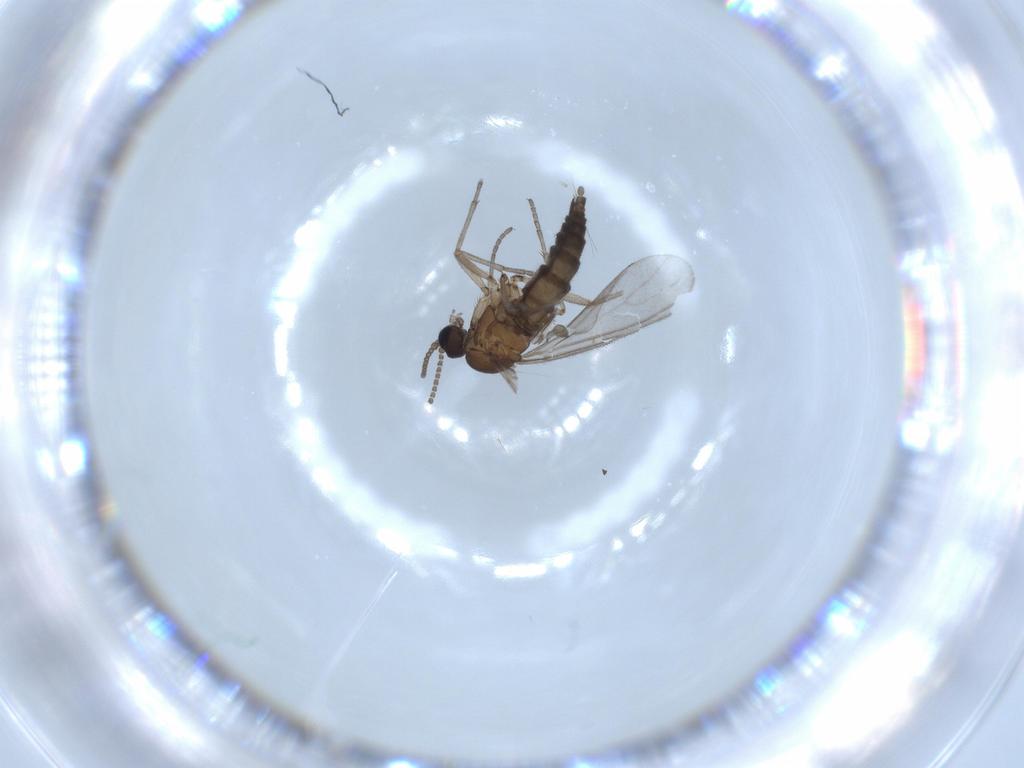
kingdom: Animalia
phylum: Arthropoda
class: Insecta
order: Diptera
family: Sciaridae
